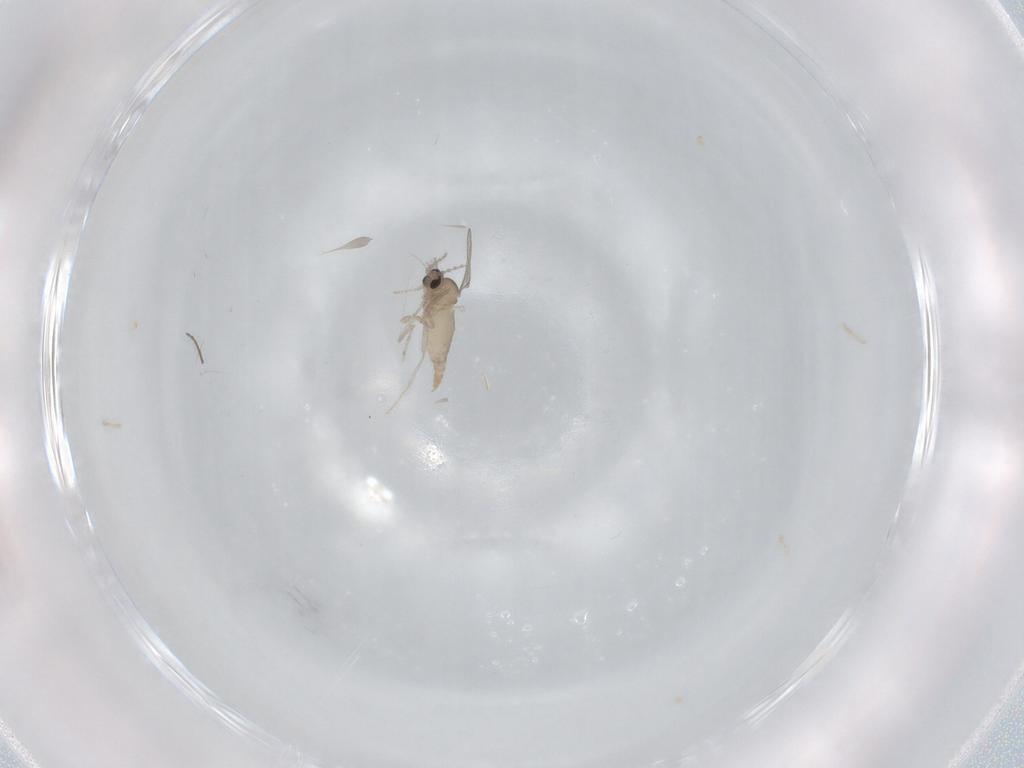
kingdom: Animalia
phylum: Arthropoda
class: Insecta
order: Diptera
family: Cecidomyiidae
